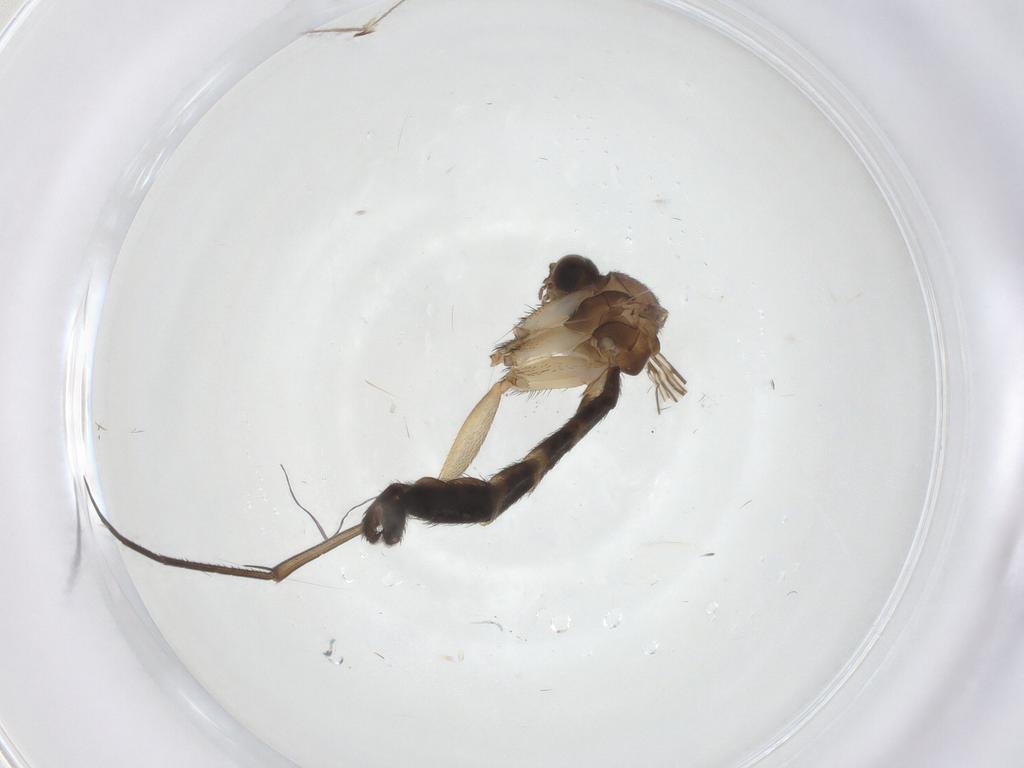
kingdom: Animalia
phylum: Arthropoda
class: Insecta
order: Diptera
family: Keroplatidae
